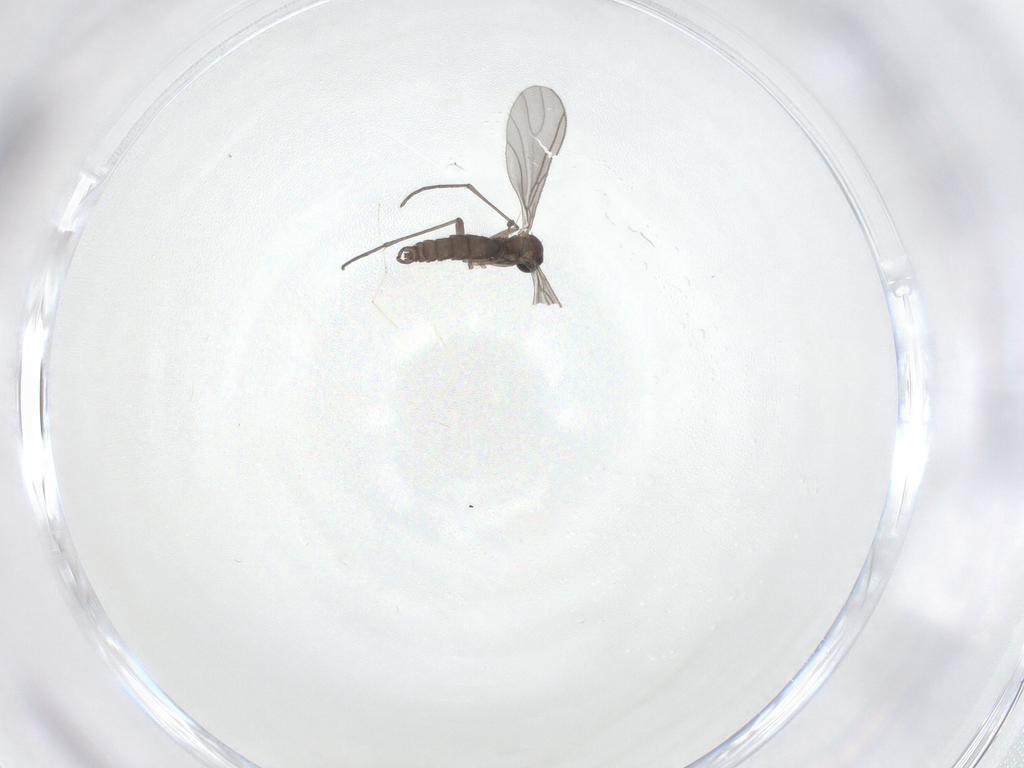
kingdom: Animalia
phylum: Arthropoda
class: Insecta
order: Diptera
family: Sciaridae
